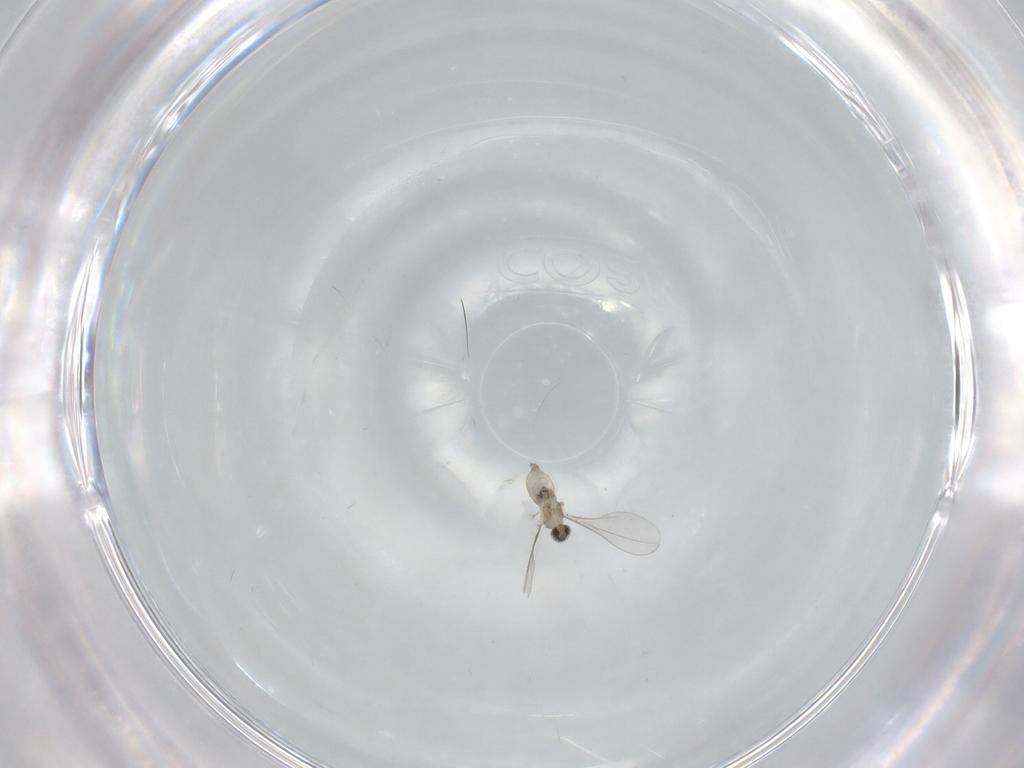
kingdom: Animalia
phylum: Arthropoda
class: Insecta
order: Diptera
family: Cecidomyiidae
